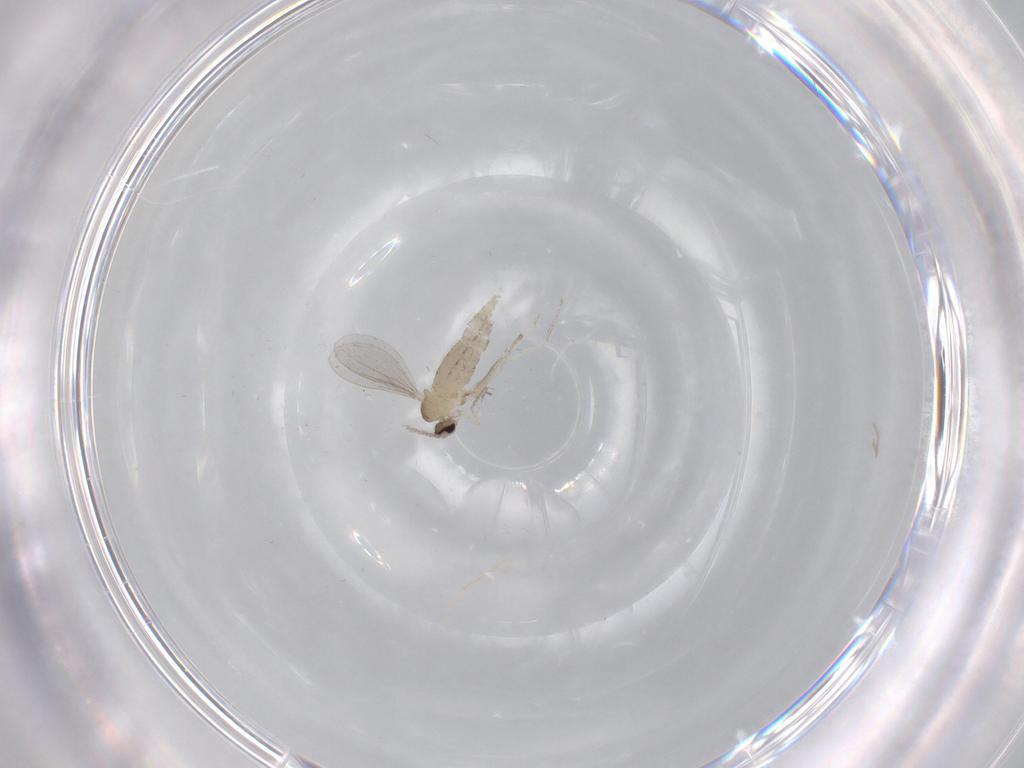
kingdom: Animalia
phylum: Arthropoda
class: Insecta
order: Diptera
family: Cecidomyiidae
